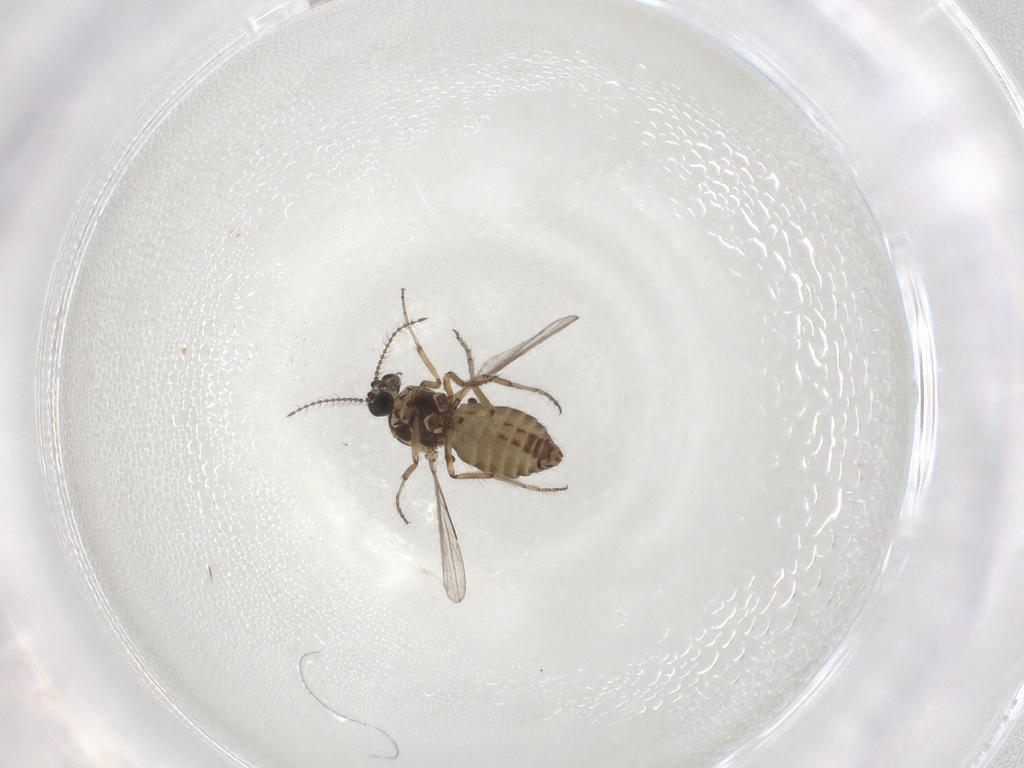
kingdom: Animalia
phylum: Arthropoda
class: Insecta
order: Diptera
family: Ceratopogonidae
